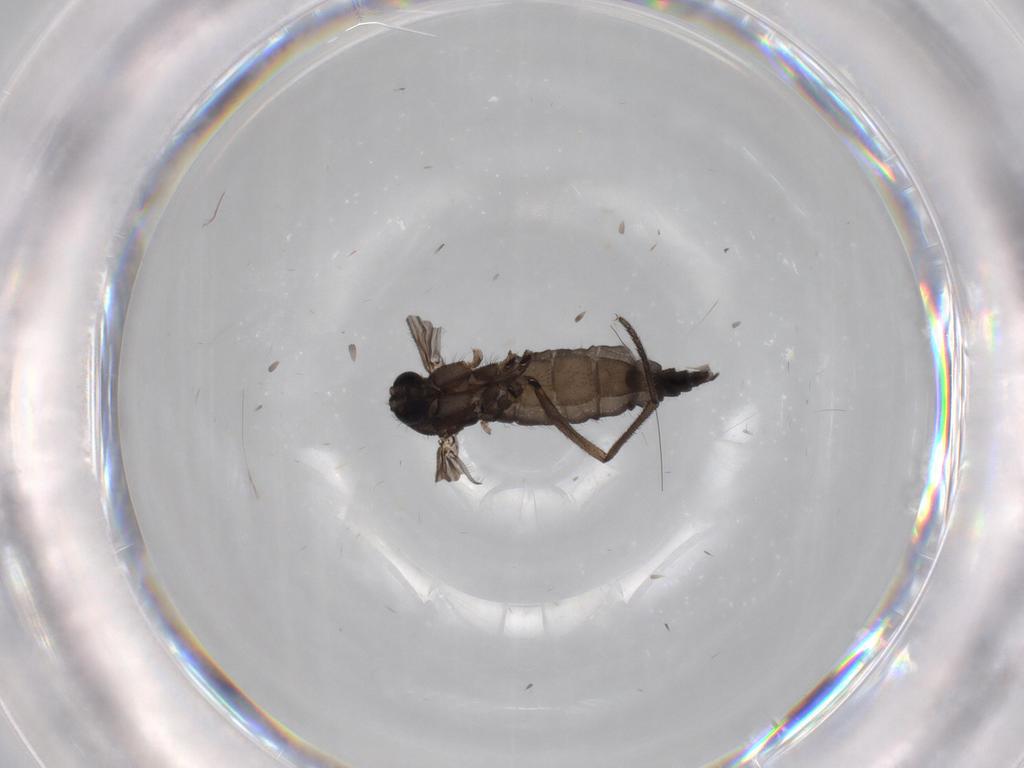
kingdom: Animalia
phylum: Arthropoda
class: Insecta
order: Diptera
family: Sciaridae
